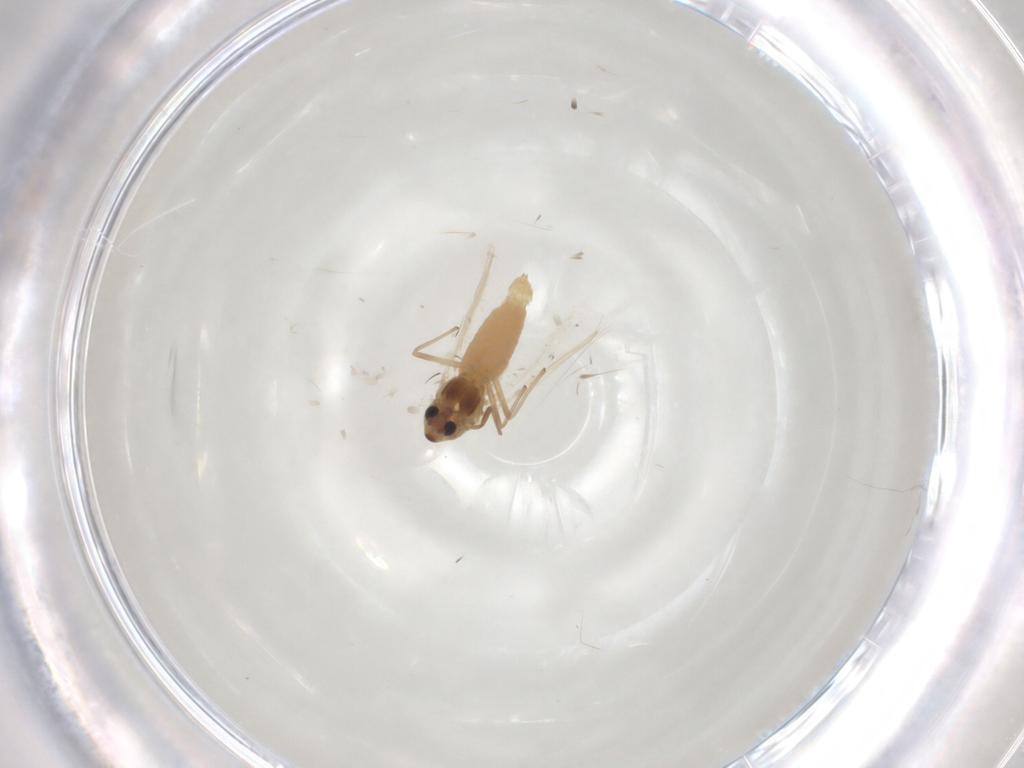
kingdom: Animalia
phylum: Arthropoda
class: Insecta
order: Diptera
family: Chironomidae
